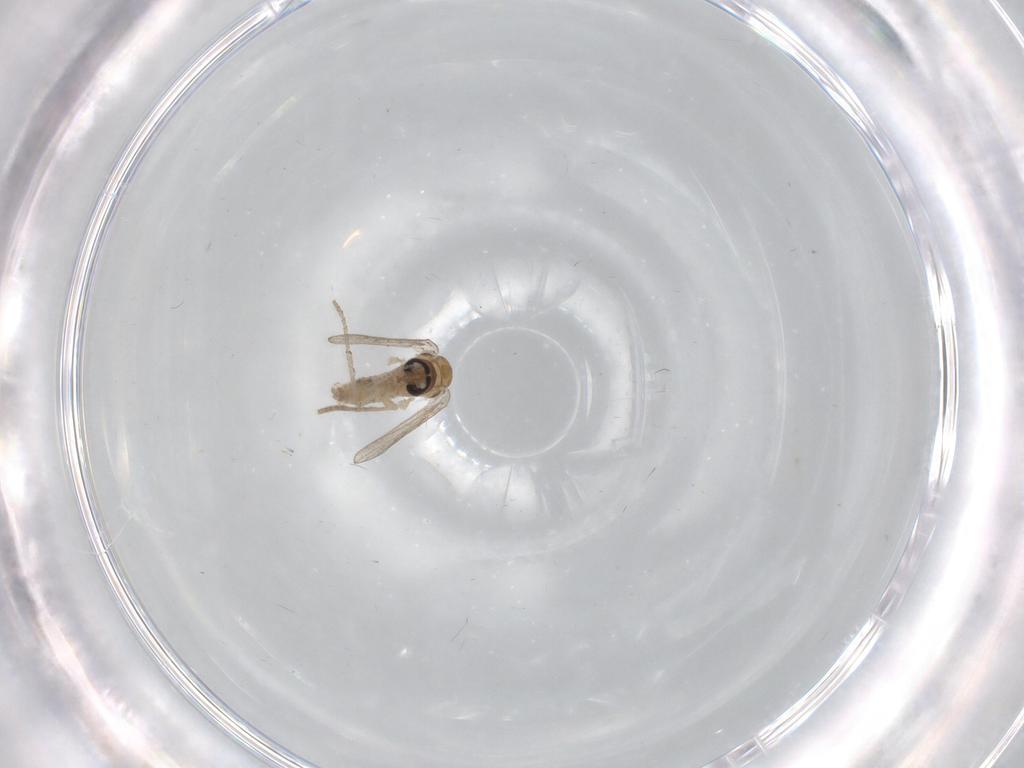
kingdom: Animalia
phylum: Arthropoda
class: Insecta
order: Diptera
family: Psychodidae
